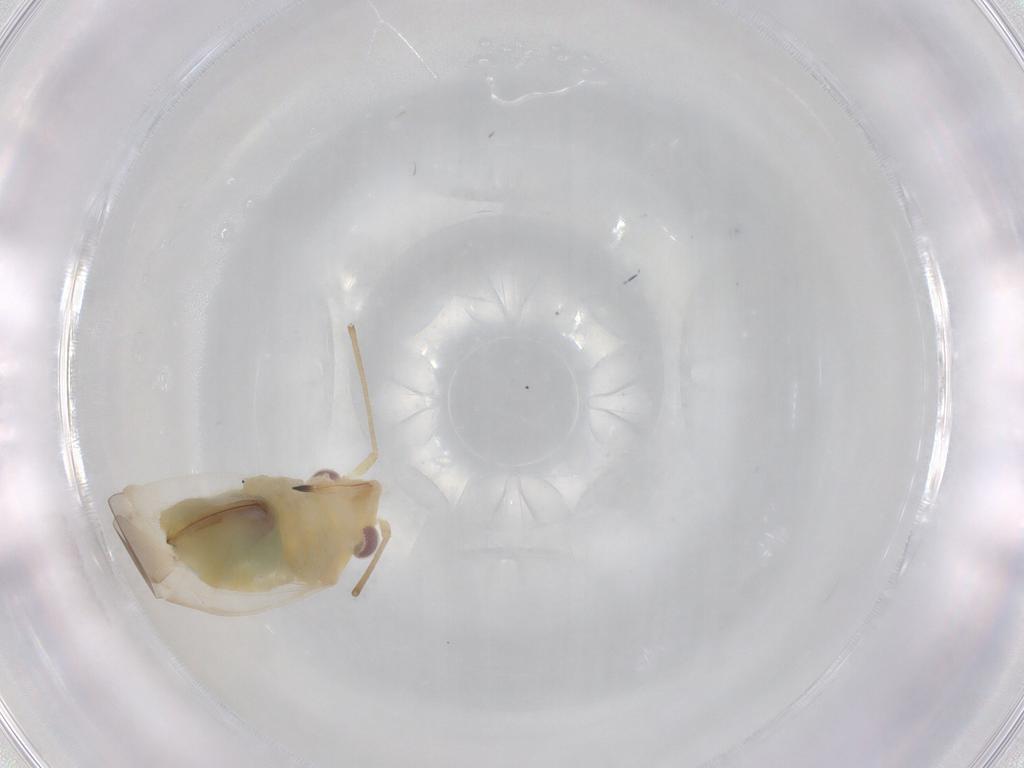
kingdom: Animalia
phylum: Arthropoda
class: Insecta
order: Hemiptera
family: Miridae
